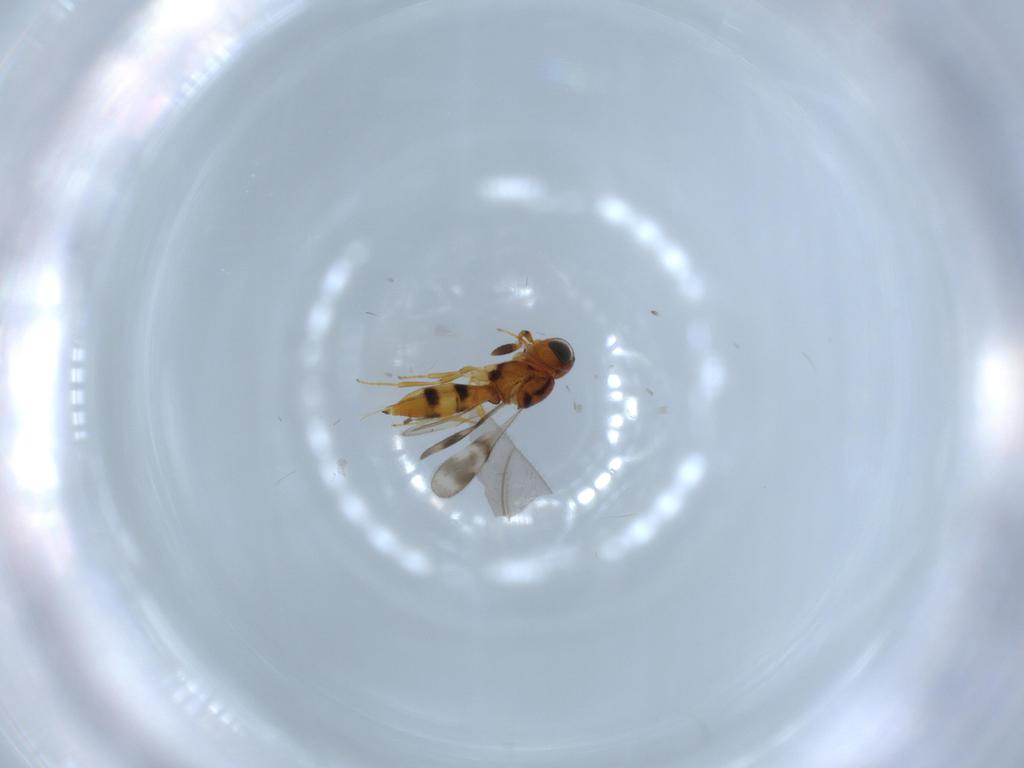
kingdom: Animalia
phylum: Arthropoda
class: Insecta
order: Hymenoptera
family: Scelionidae
